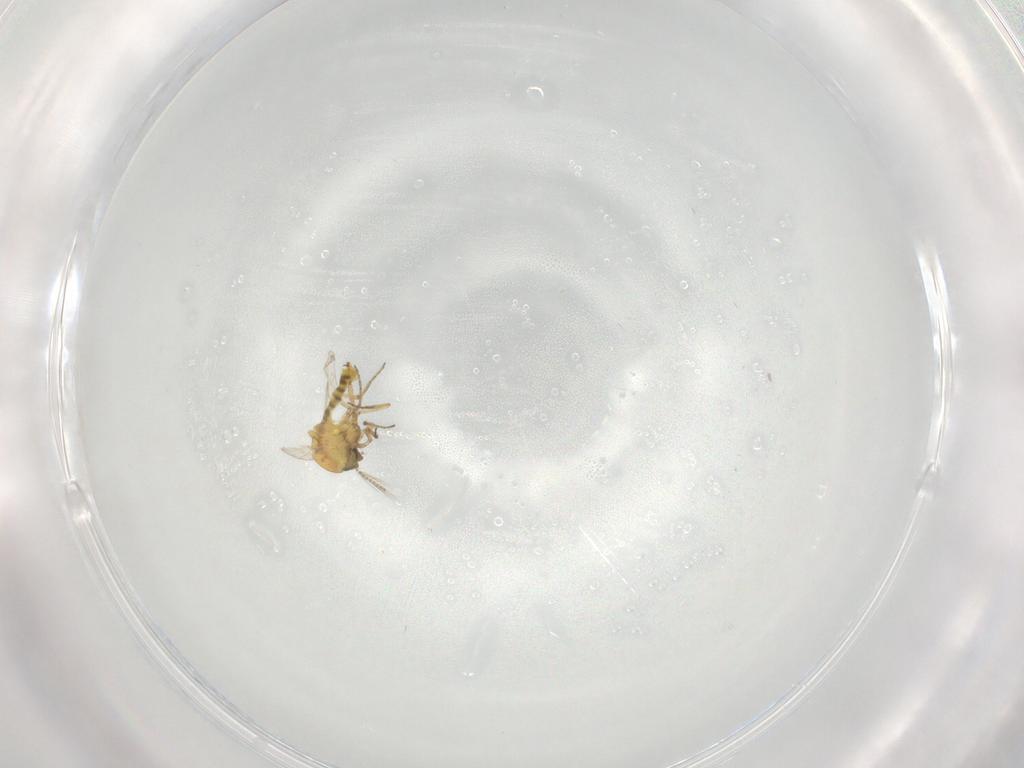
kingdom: Animalia
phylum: Arthropoda
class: Insecta
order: Diptera
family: Ceratopogonidae
